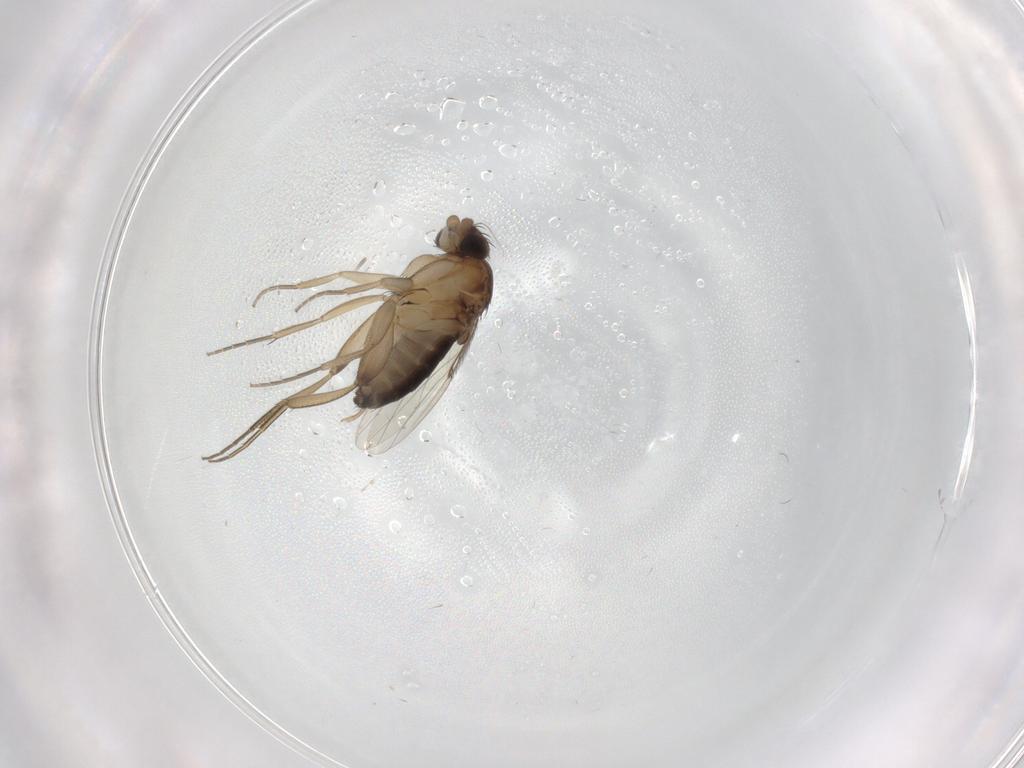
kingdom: Animalia
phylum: Arthropoda
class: Insecta
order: Diptera
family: Phoridae
